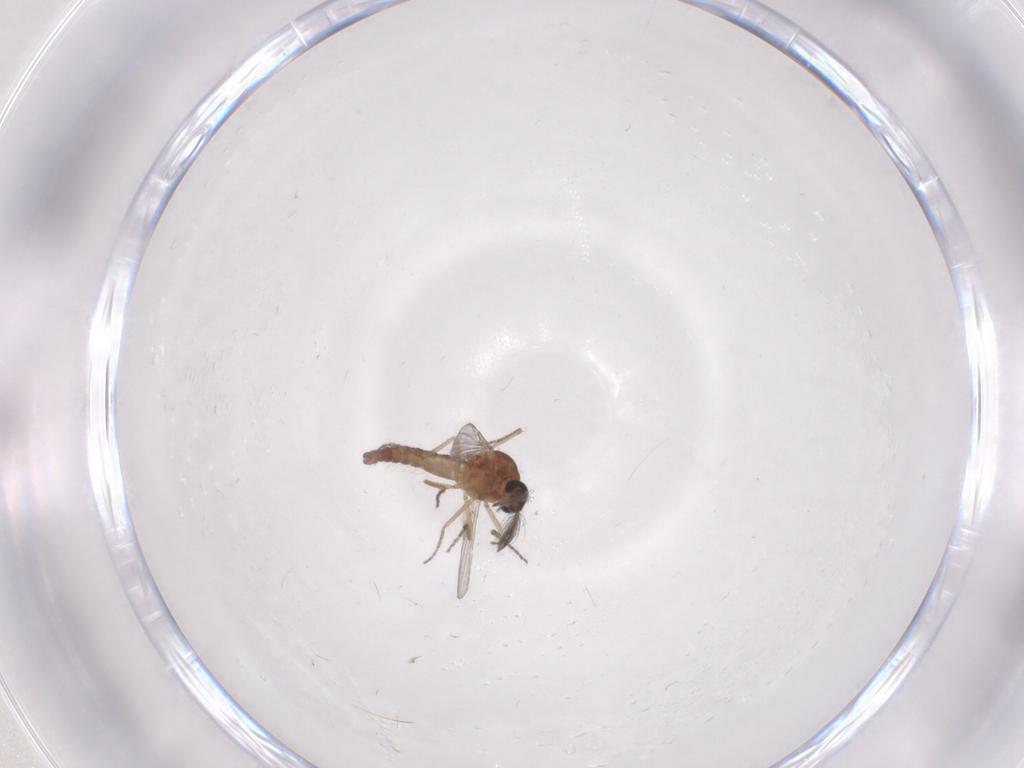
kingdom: Animalia
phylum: Arthropoda
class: Insecta
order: Diptera
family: Ceratopogonidae
